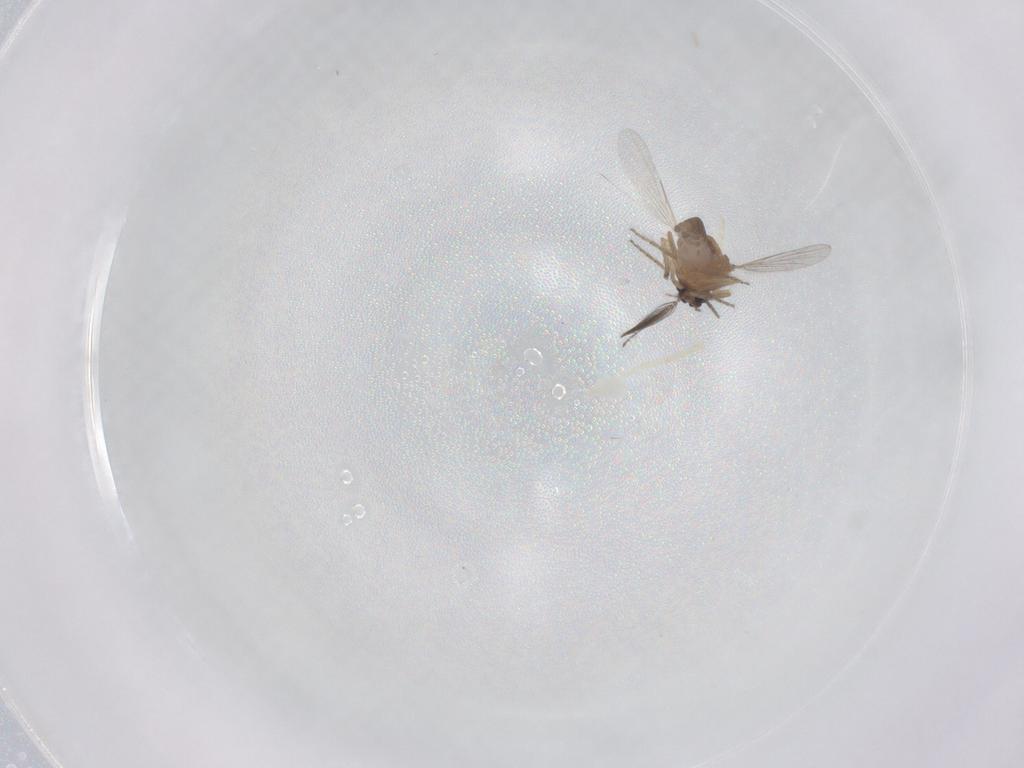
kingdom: Animalia
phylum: Arthropoda
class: Insecta
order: Diptera
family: Ceratopogonidae
